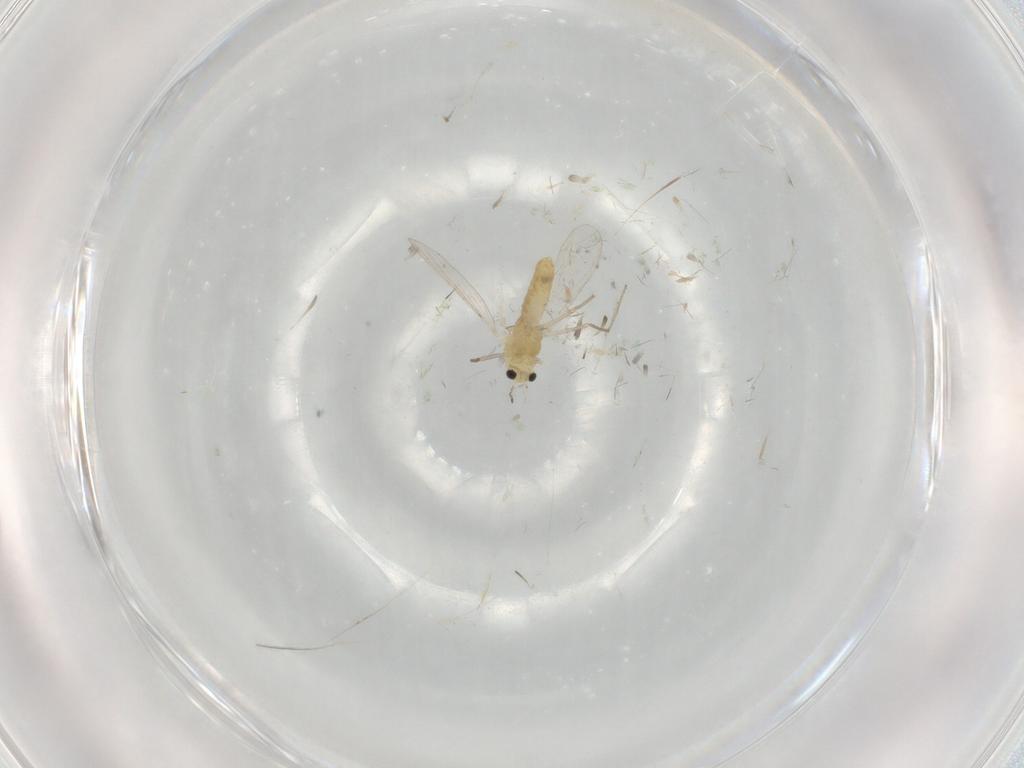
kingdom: Animalia
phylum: Arthropoda
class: Insecta
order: Diptera
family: Chironomidae
